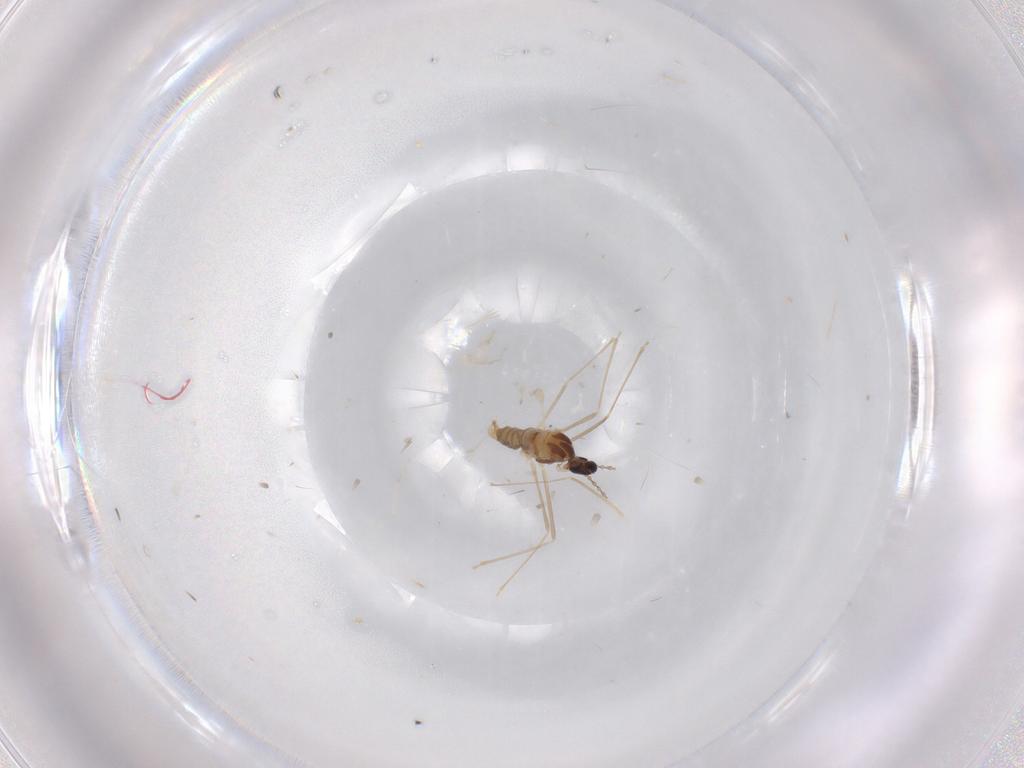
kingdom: Animalia
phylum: Arthropoda
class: Insecta
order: Diptera
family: Cecidomyiidae
